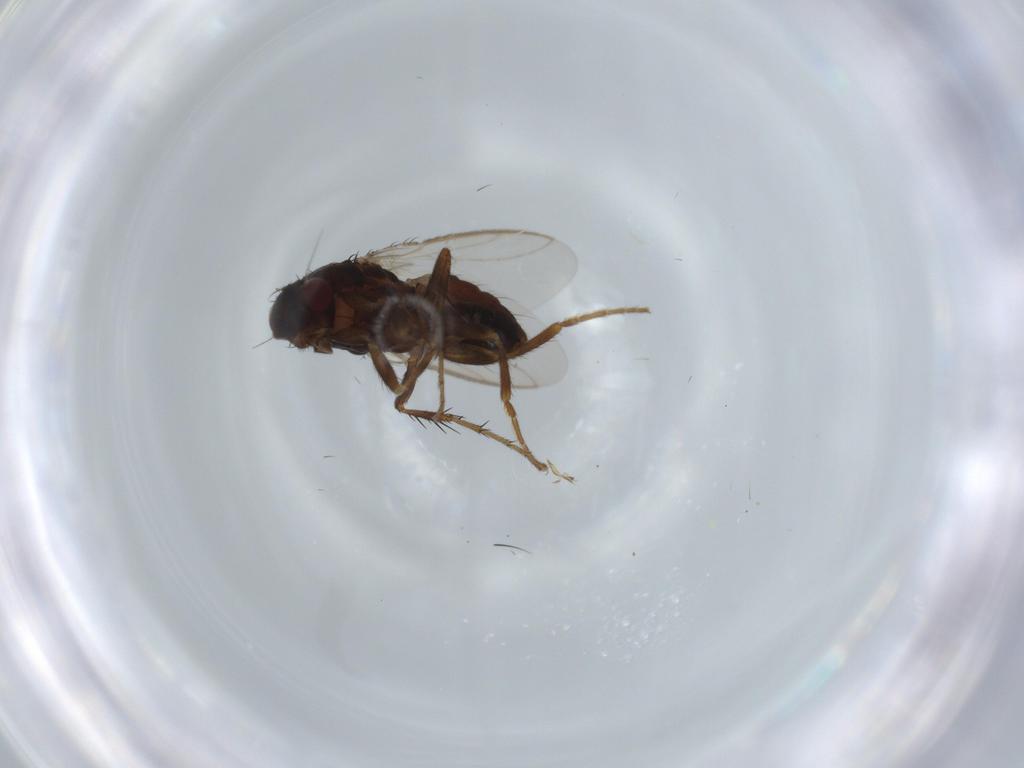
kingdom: Animalia
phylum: Arthropoda
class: Insecta
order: Diptera
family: Sphaeroceridae
